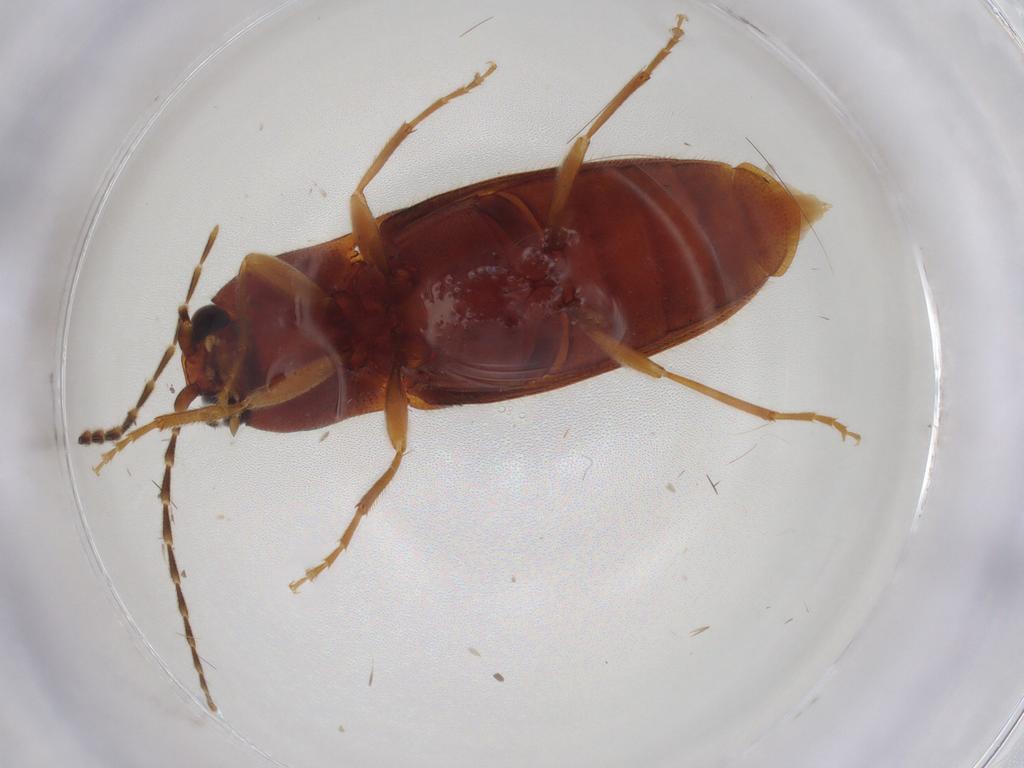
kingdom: Animalia
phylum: Arthropoda
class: Insecta
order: Coleoptera
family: Elateridae
